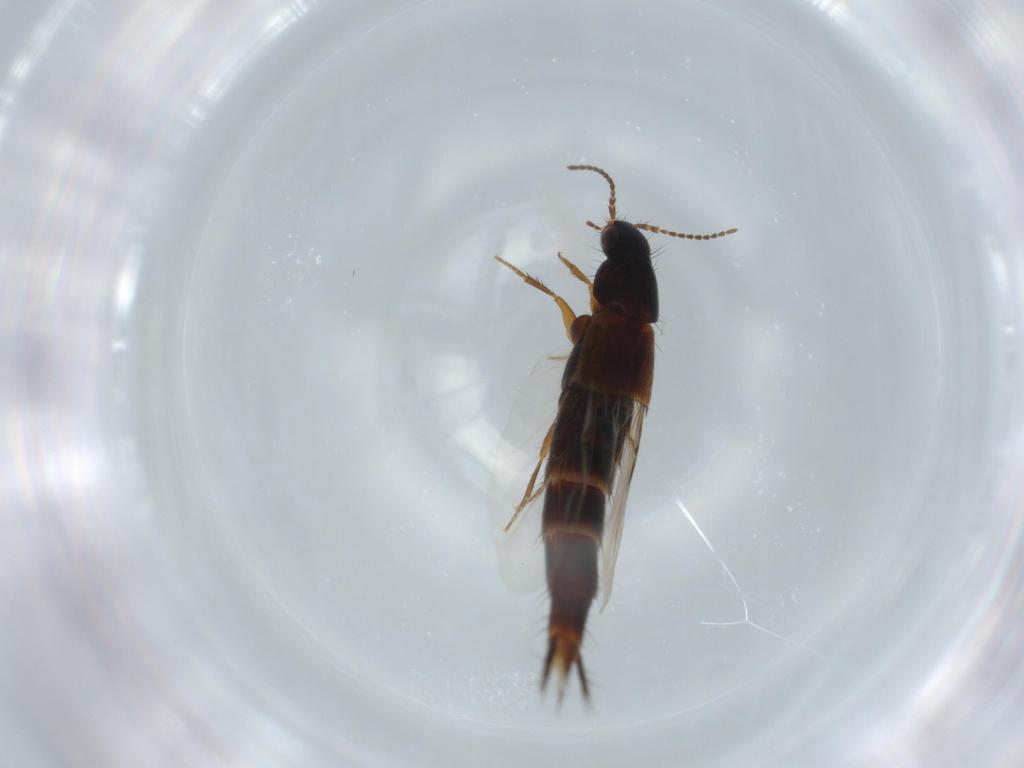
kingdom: Animalia
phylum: Arthropoda
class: Insecta
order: Coleoptera
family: Staphylinidae
